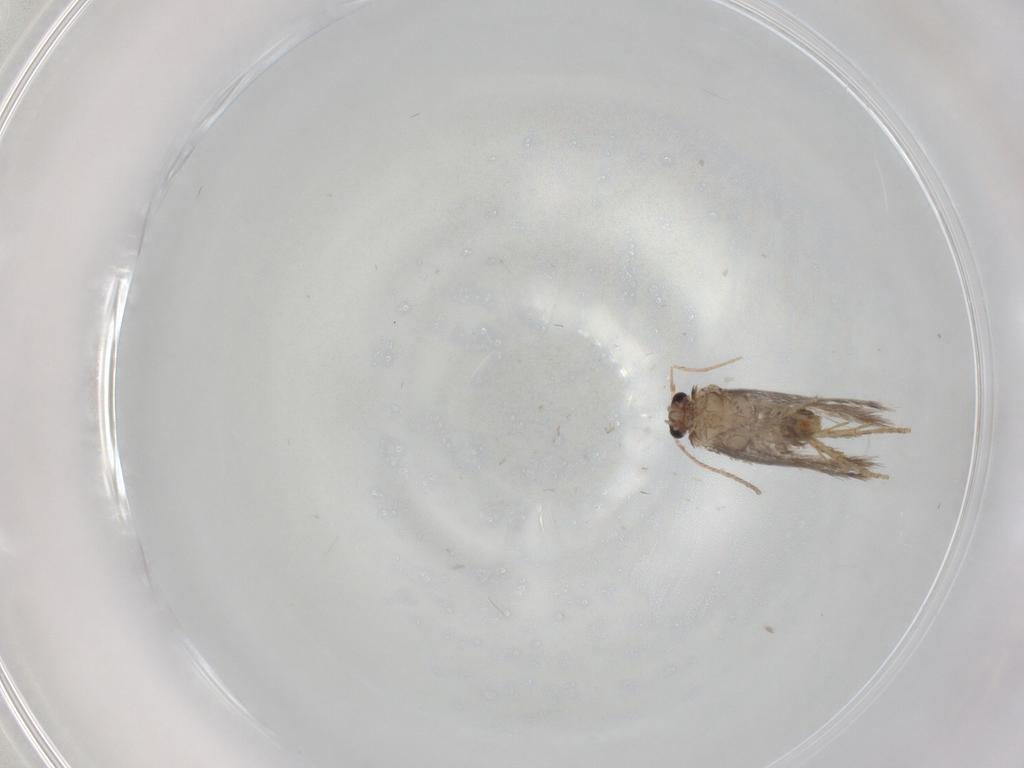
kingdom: Animalia
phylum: Arthropoda
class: Insecta
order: Lepidoptera
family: Nepticulidae
